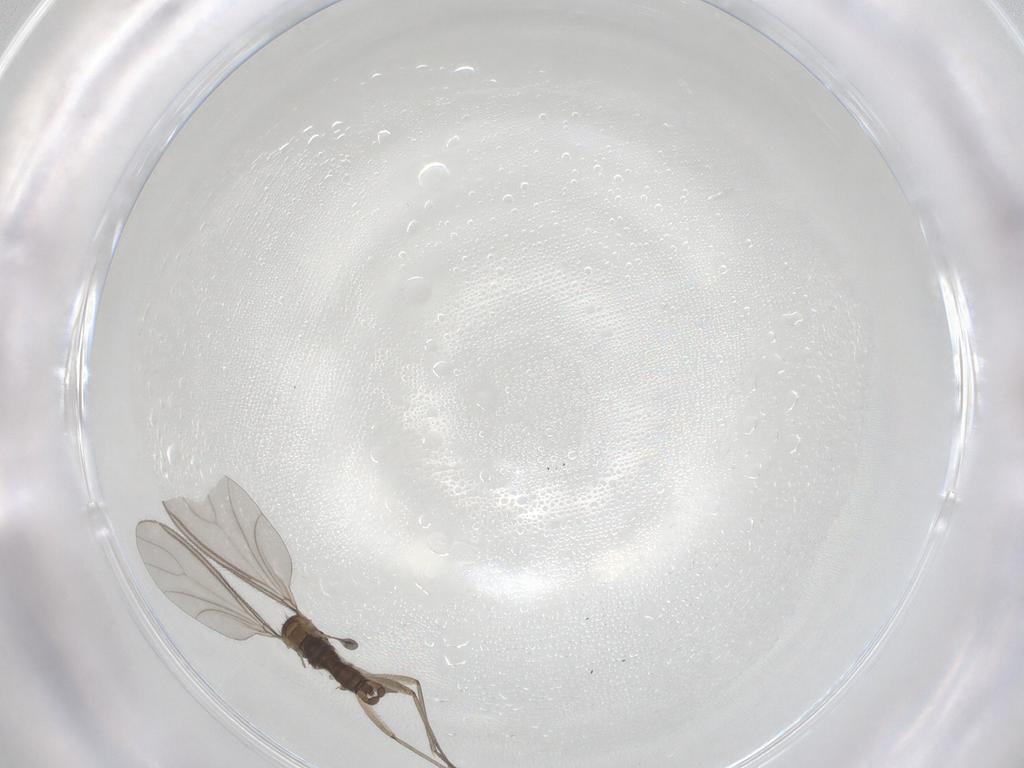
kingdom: Animalia
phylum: Arthropoda
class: Insecta
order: Diptera
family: Sciaridae
